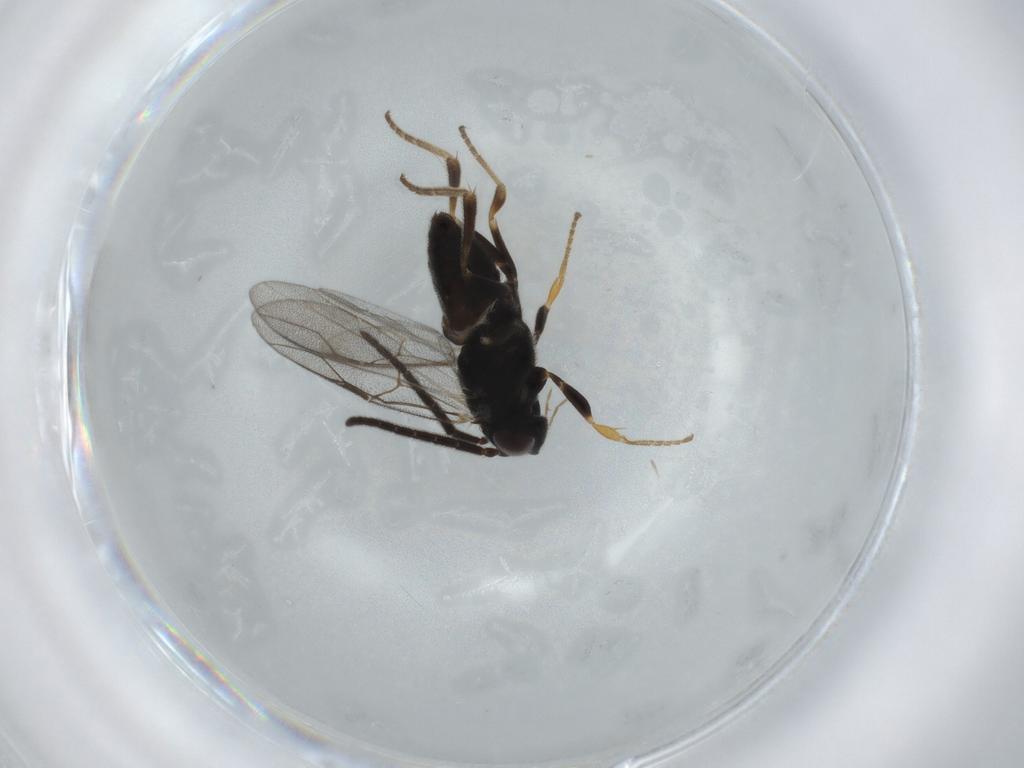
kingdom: Animalia
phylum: Arthropoda
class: Insecta
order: Hymenoptera
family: Dryinidae
